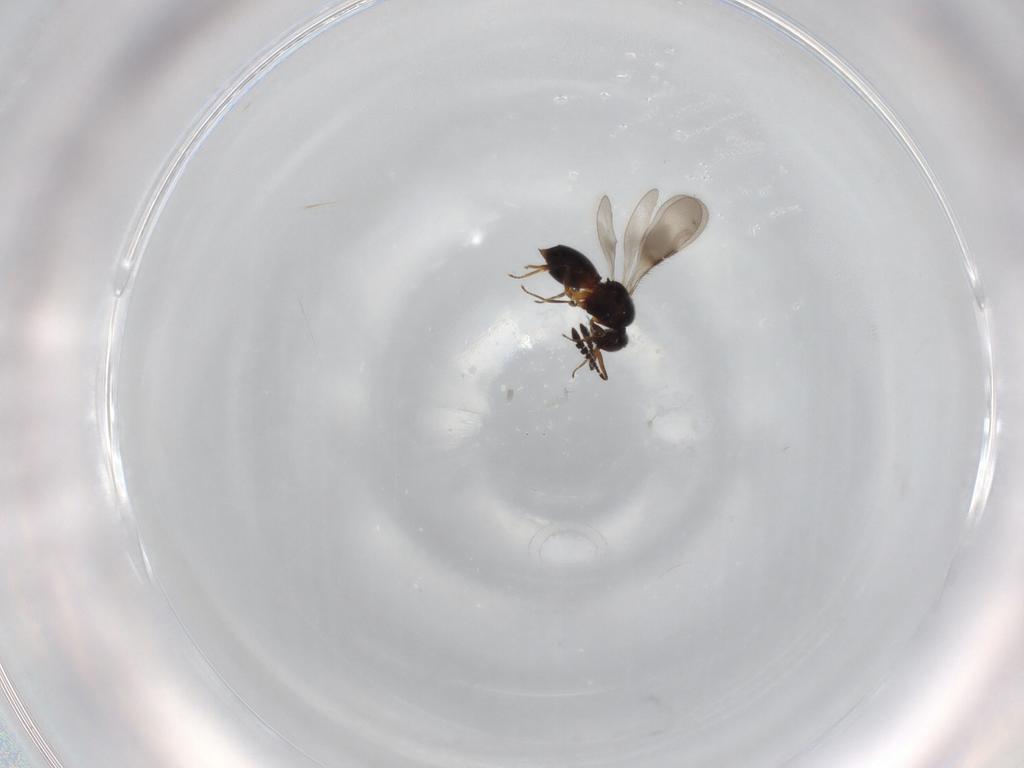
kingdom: Animalia
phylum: Arthropoda
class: Insecta
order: Hymenoptera
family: Ceraphronidae
